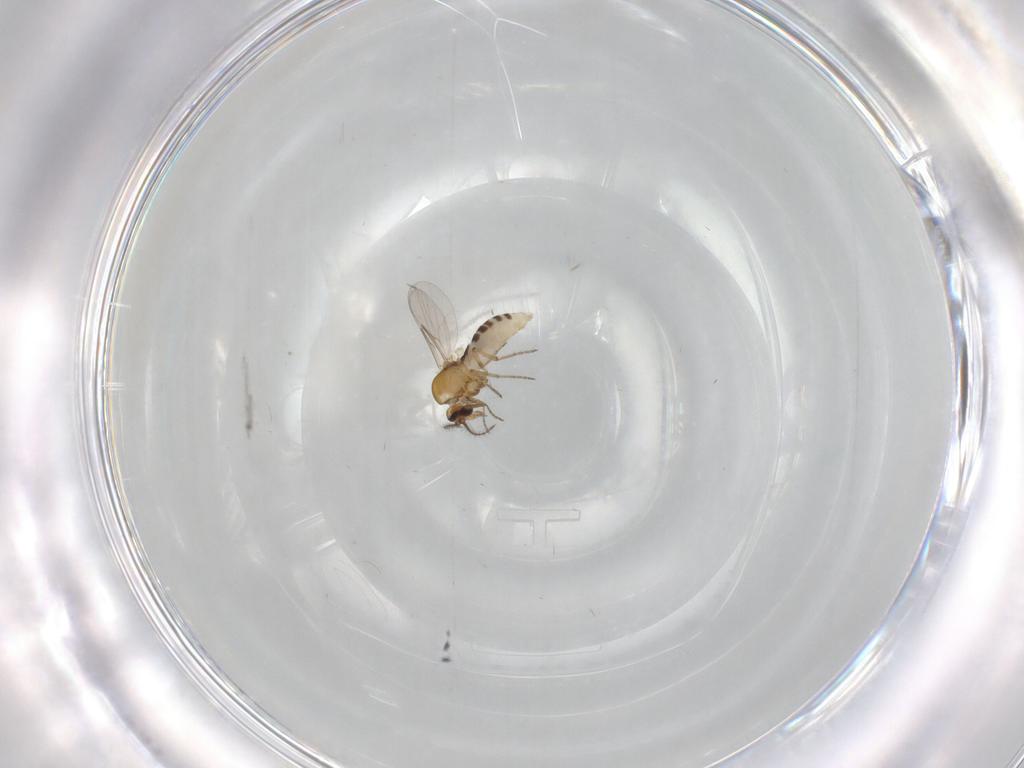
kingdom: Animalia
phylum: Arthropoda
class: Insecta
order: Diptera
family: Ceratopogonidae
